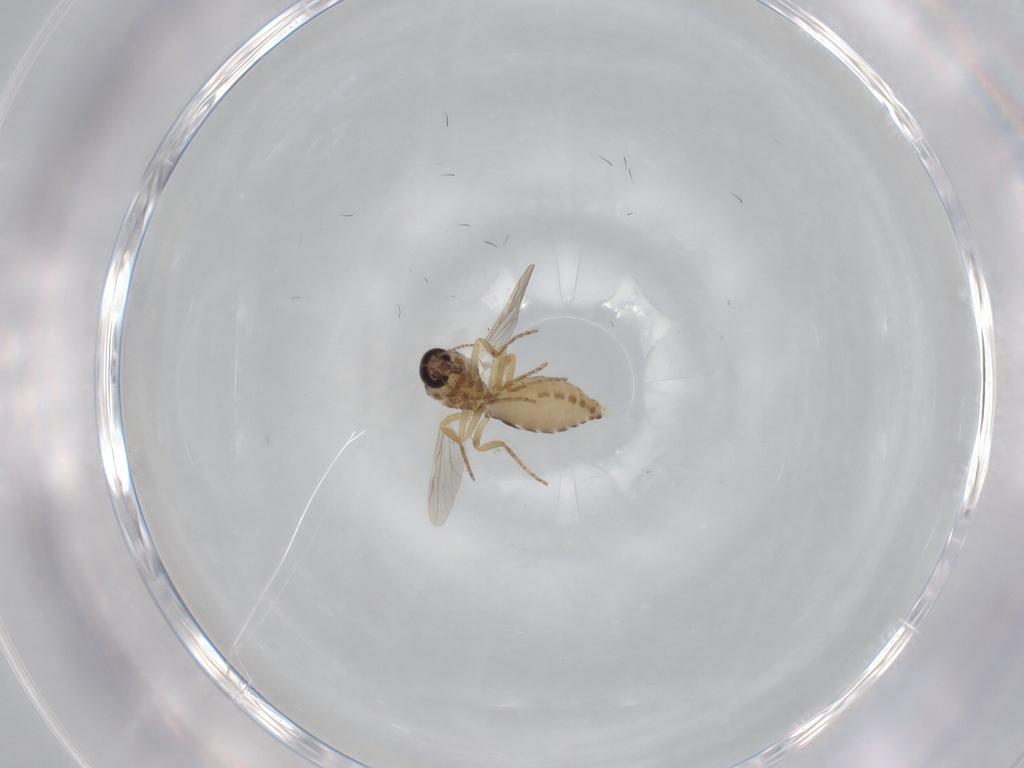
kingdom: Animalia
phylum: Arthropoda
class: Insecta
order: Diptera
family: Ceratopogonidae
